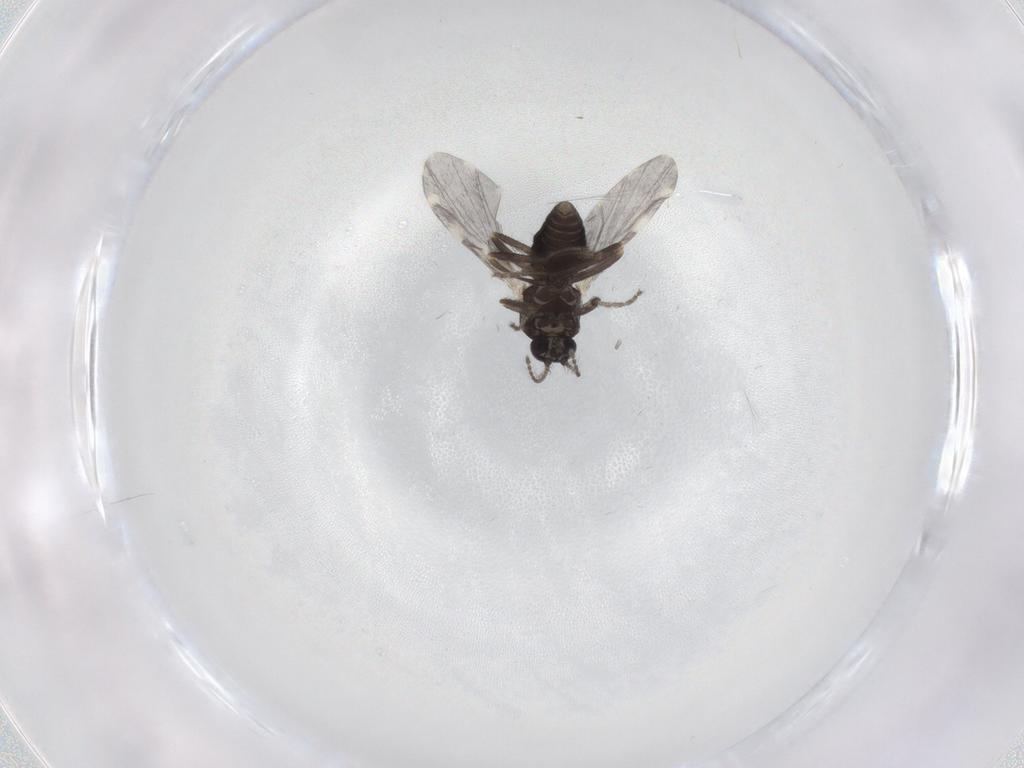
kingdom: Animalia
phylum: Arthropoda
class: Insecta
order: Diptera
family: Ceratopogonidae
